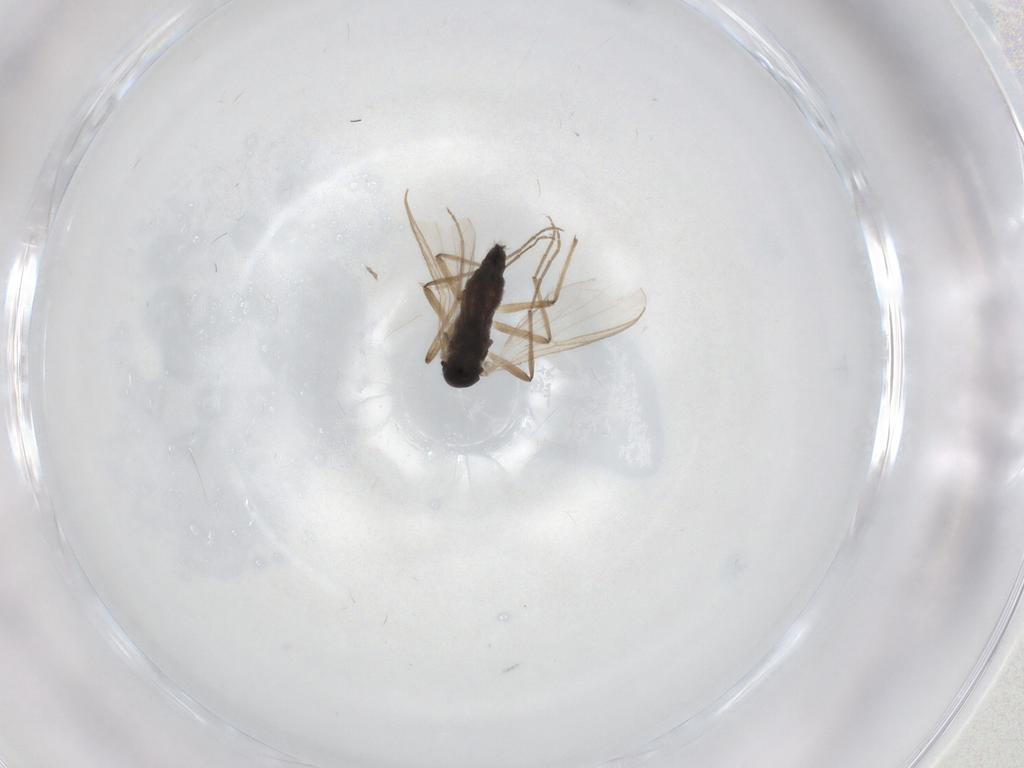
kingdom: Animalia
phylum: Arthropoda
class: Insecta
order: Diptera
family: Chironomidae
